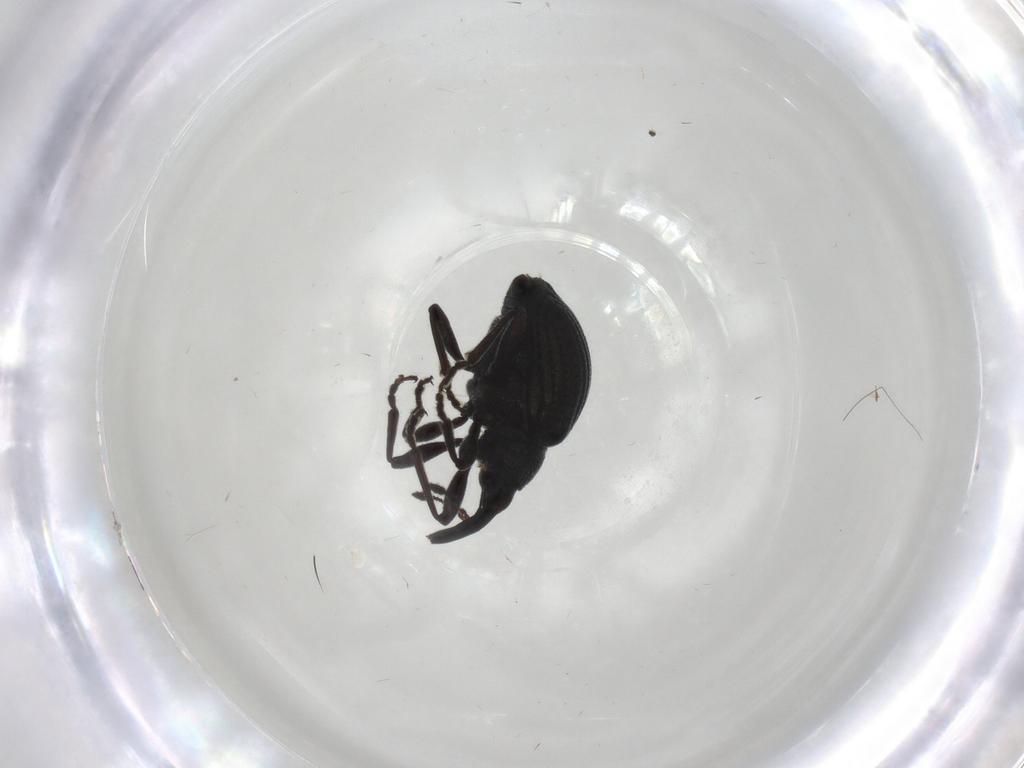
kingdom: Animalia
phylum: Arthropoda
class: Insecta
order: Coleoptera
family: Brentidae
